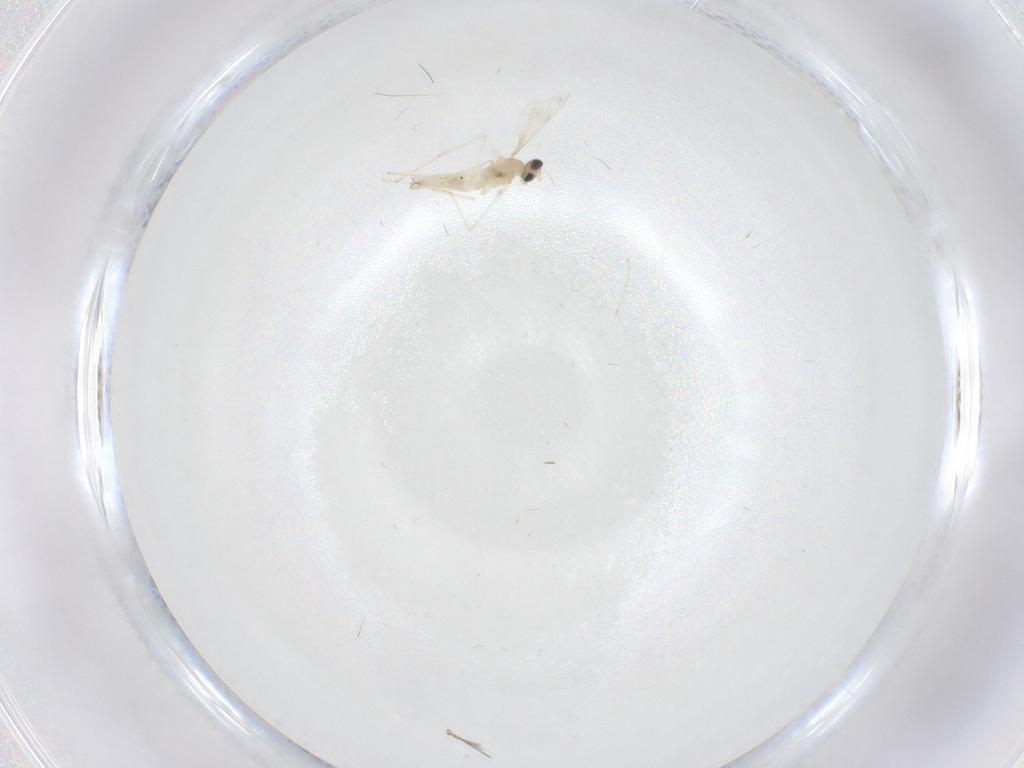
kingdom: Animalia
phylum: Arthropoda
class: Insecta
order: Diptera
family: Cecidomyiidae
